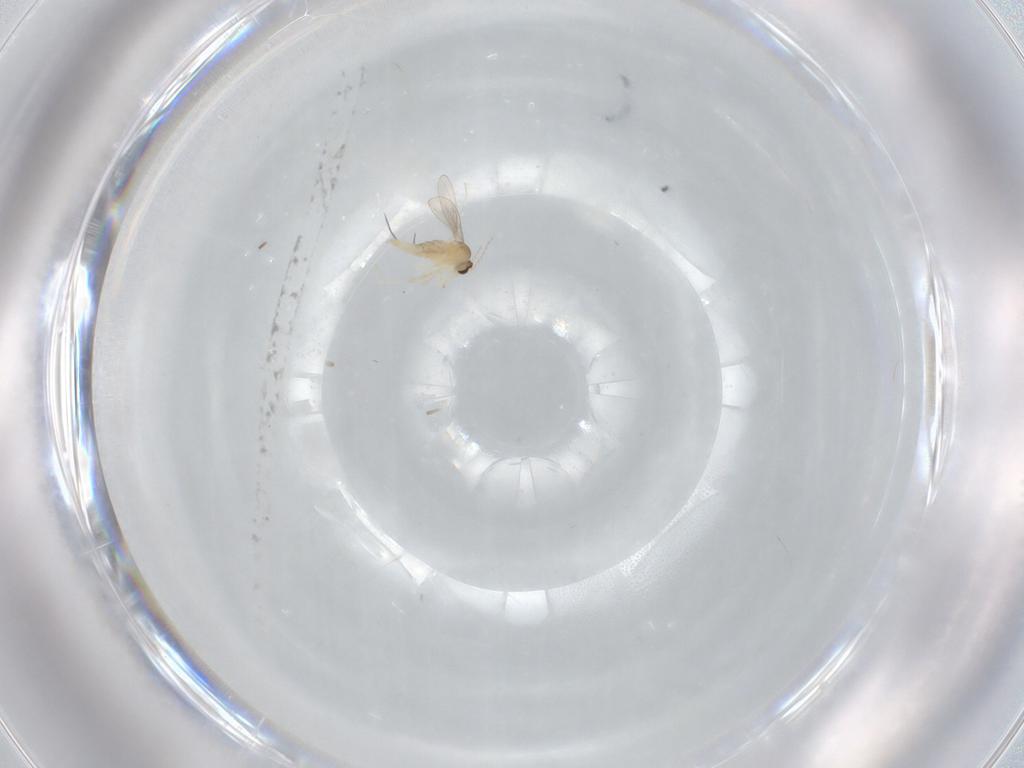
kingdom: Animalia
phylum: Arthropoda
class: Insecta
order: Diptera
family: Cecidomyiidae
